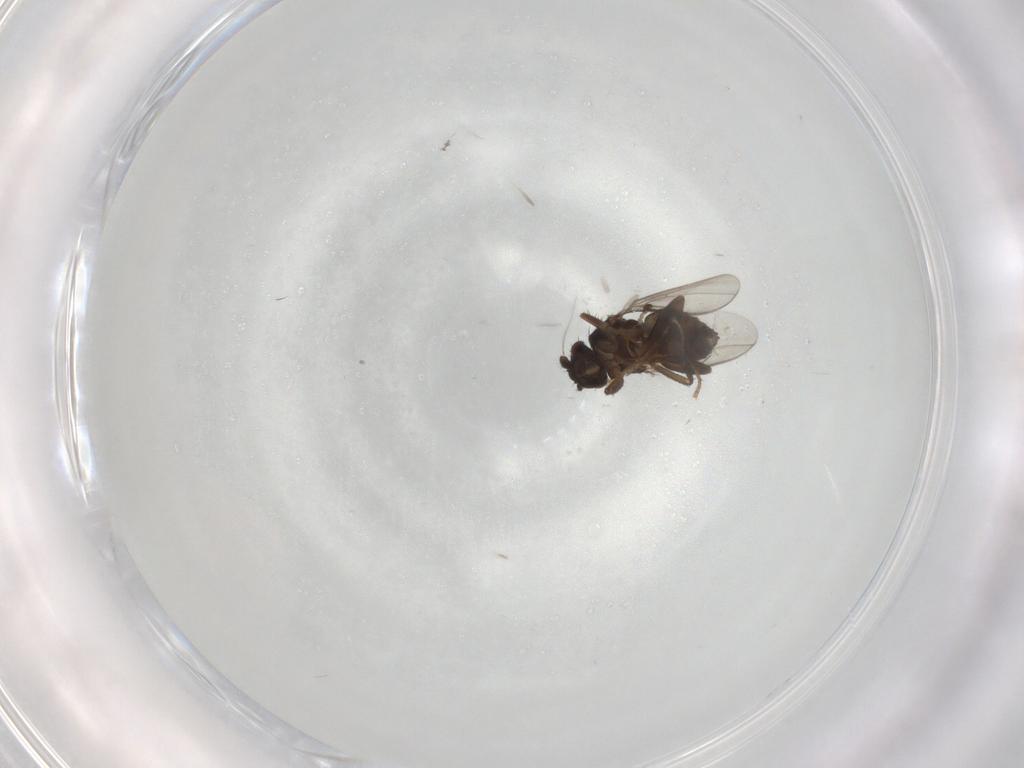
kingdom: Animalia
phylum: Arthropoda
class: Insecta
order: Diptera
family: Sphaeroceridae
